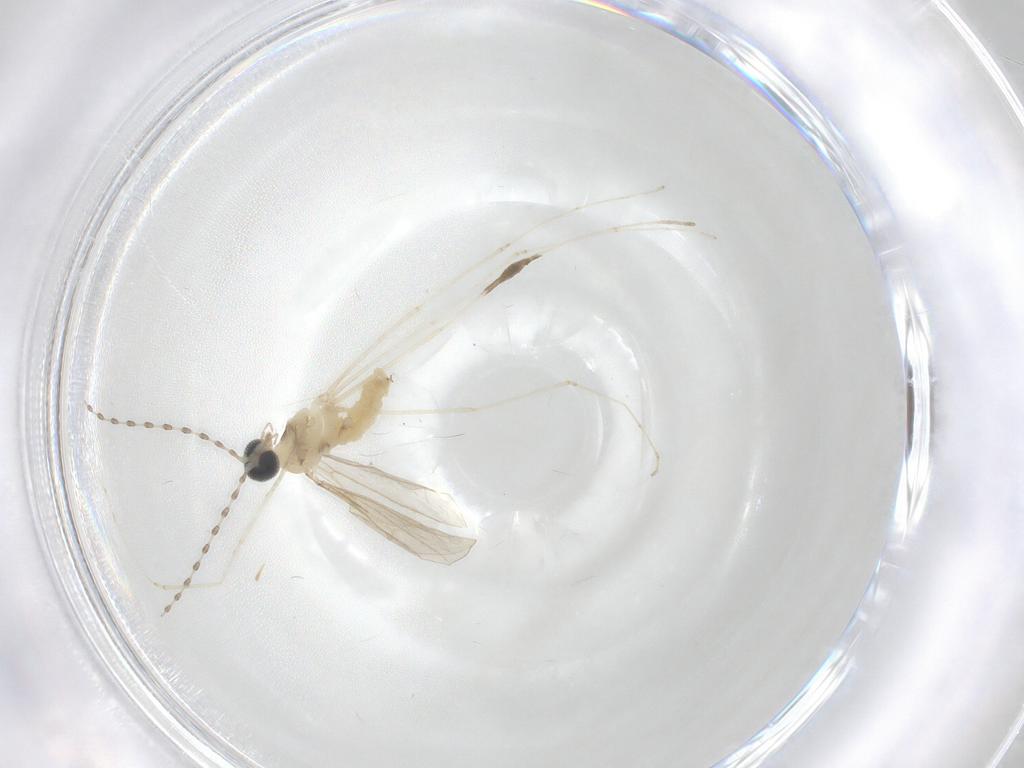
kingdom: Animalia
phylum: Arthropoda
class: Insecta
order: Diptera
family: Cecidomyiidae
